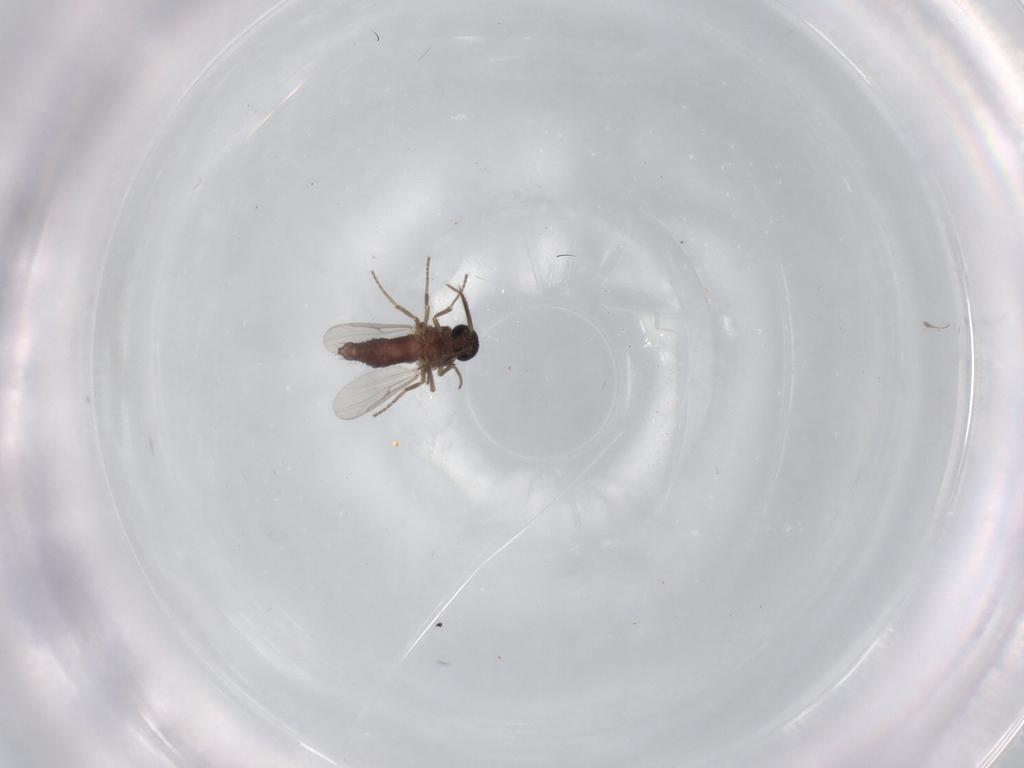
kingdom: Animalia
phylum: Arthropoda
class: Insecta
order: Diptera
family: Ceratopogonidae
